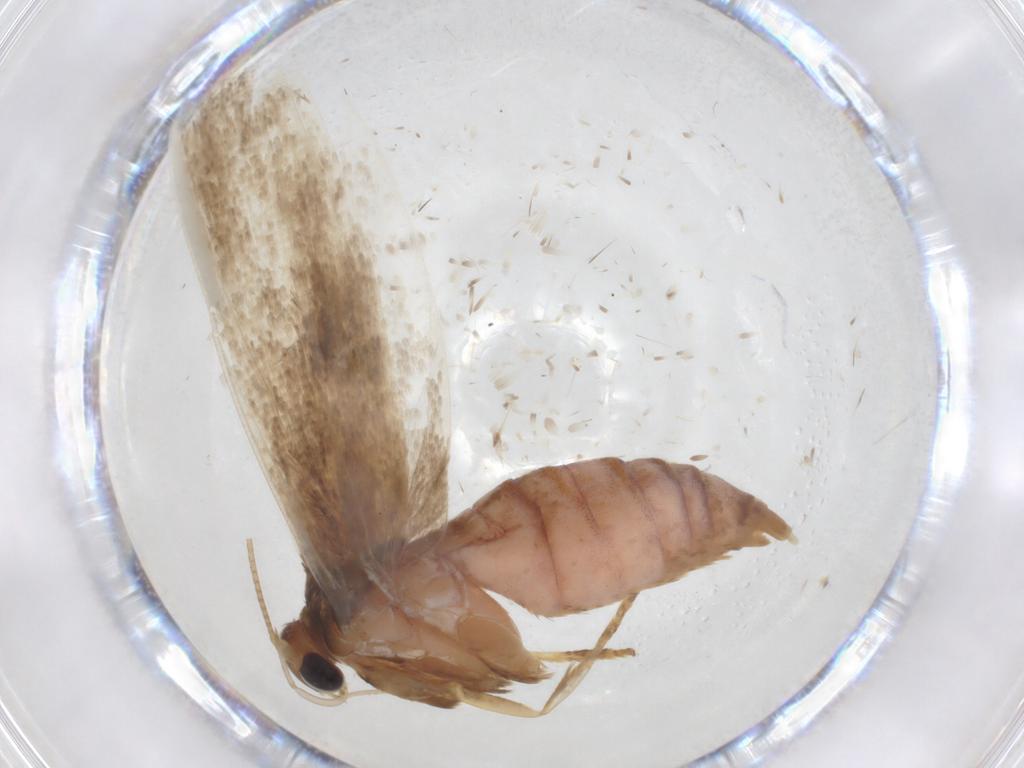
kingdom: Animalia
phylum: Arthropoda
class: Insecta
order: Lepidoptera
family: Blastobasidae
